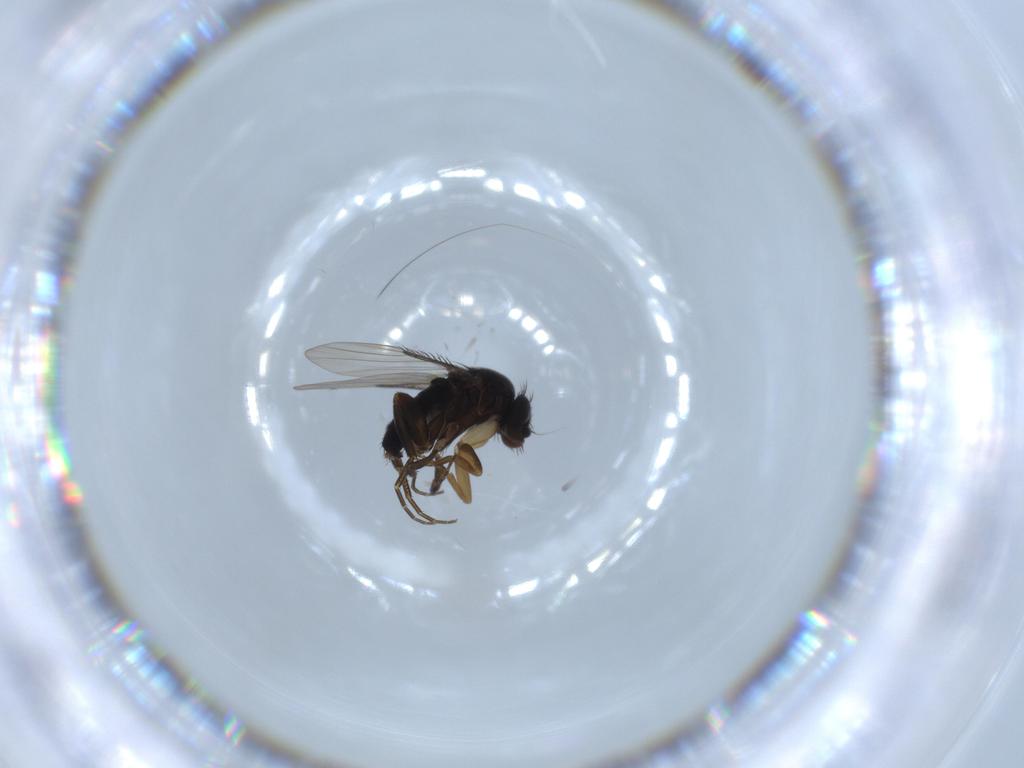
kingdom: Animalia
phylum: Arthropoda
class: Insecta
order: Diptera
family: Phoridae
